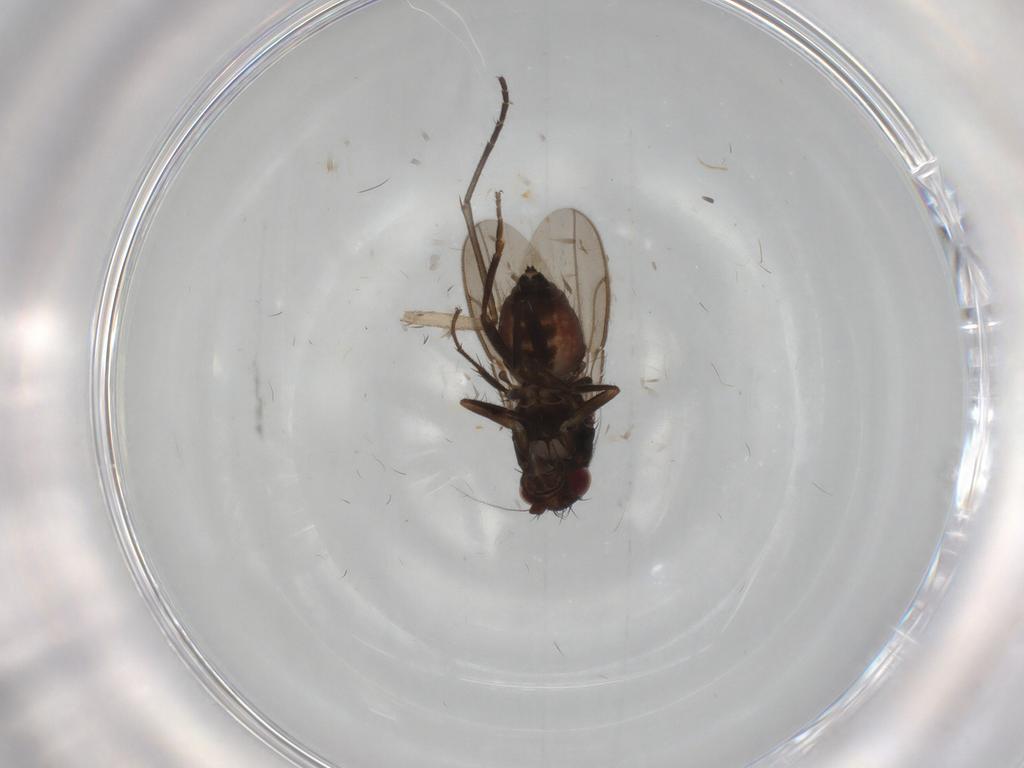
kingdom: Animalia
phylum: Arthropoda
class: Insecta
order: Diptera
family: Sciaridae
